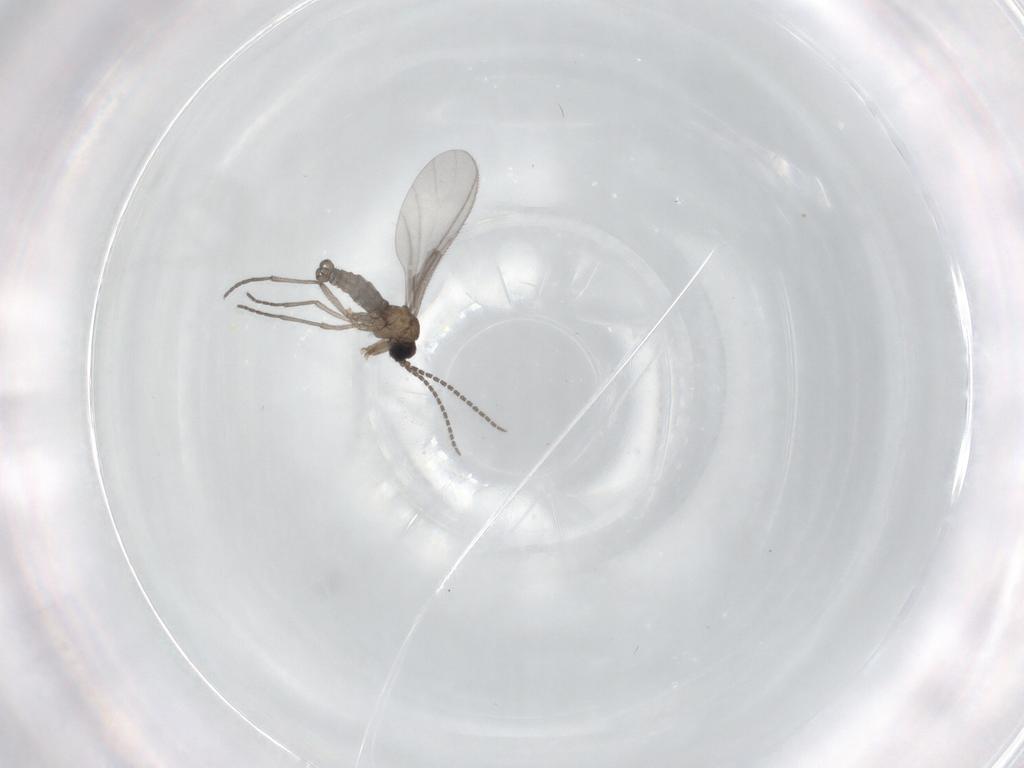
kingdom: Animalia
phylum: Arthropoda
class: Insecta
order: Diptera
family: Sciaridae
